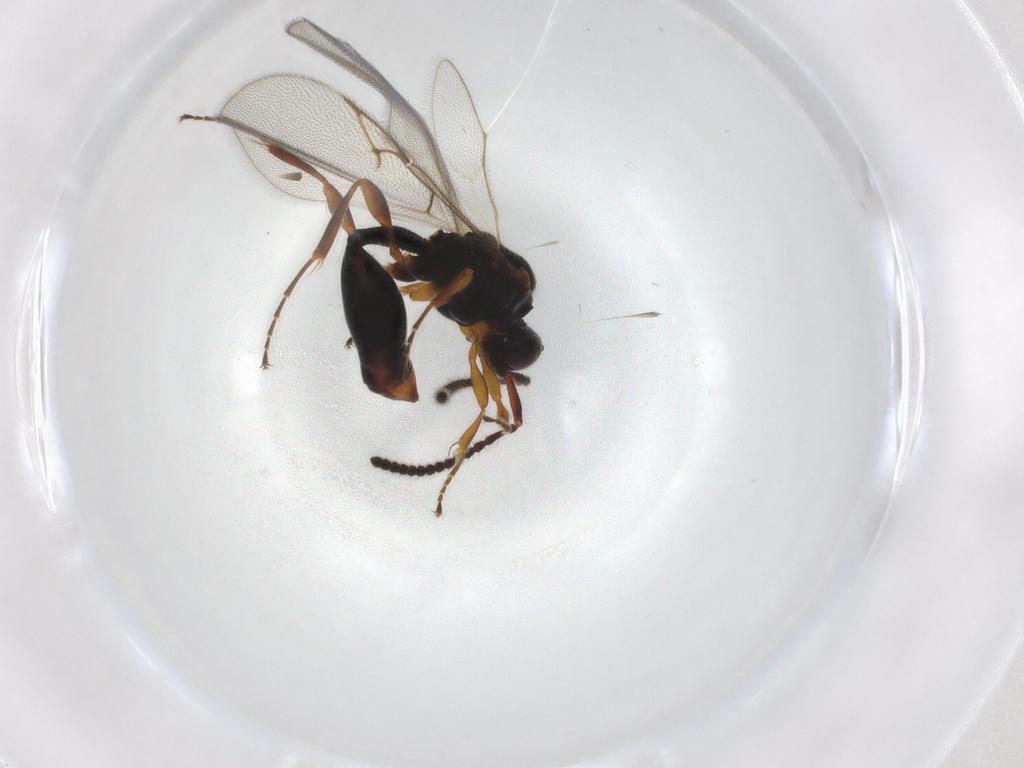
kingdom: Animalia
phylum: Arthropoda
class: Insecta
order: Hymenoptera
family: Diapriidae
